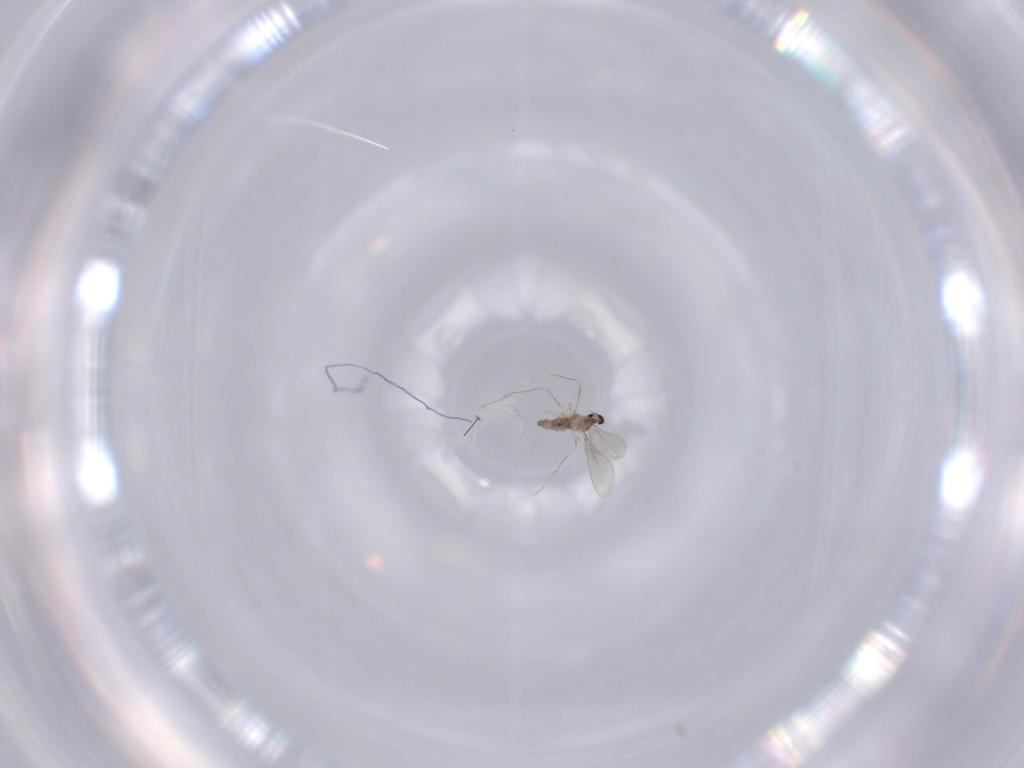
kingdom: Animalia
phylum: Arthropoda
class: Insecta
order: Diptera
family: Cecidomyiidae
